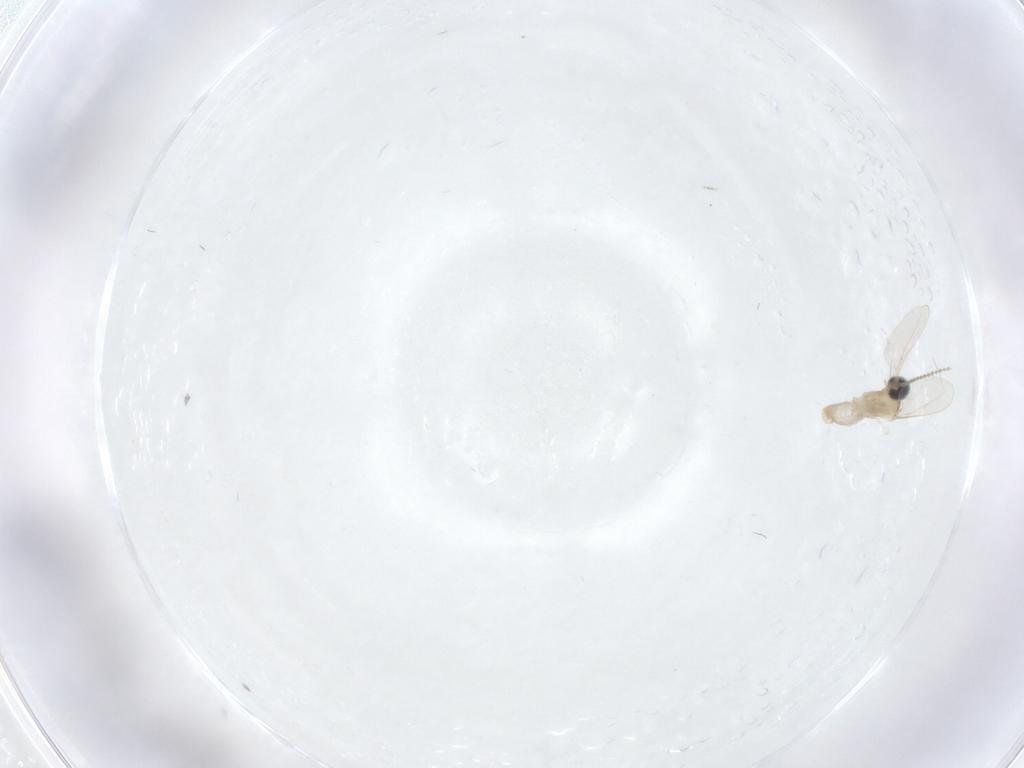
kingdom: Animalia
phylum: Arthropoda
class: Insecta
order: Diptera
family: Cecidomyiidae
